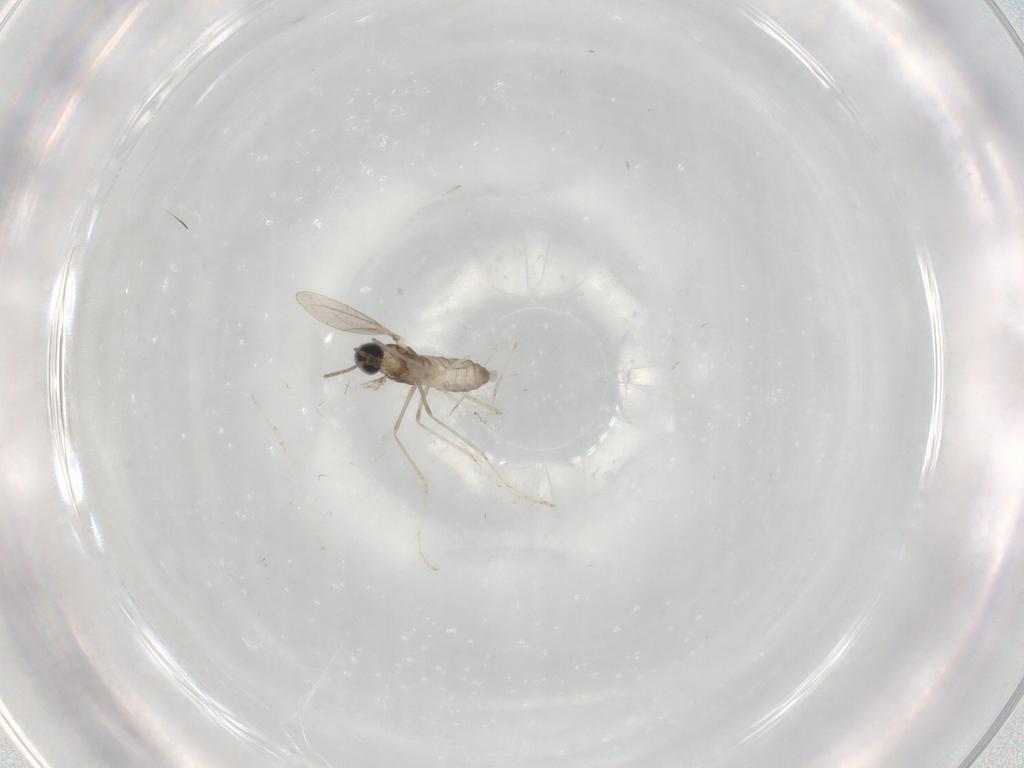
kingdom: Animalia
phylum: Arthropoda
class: Insecta
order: Diptera
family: Cecidomyiidae
